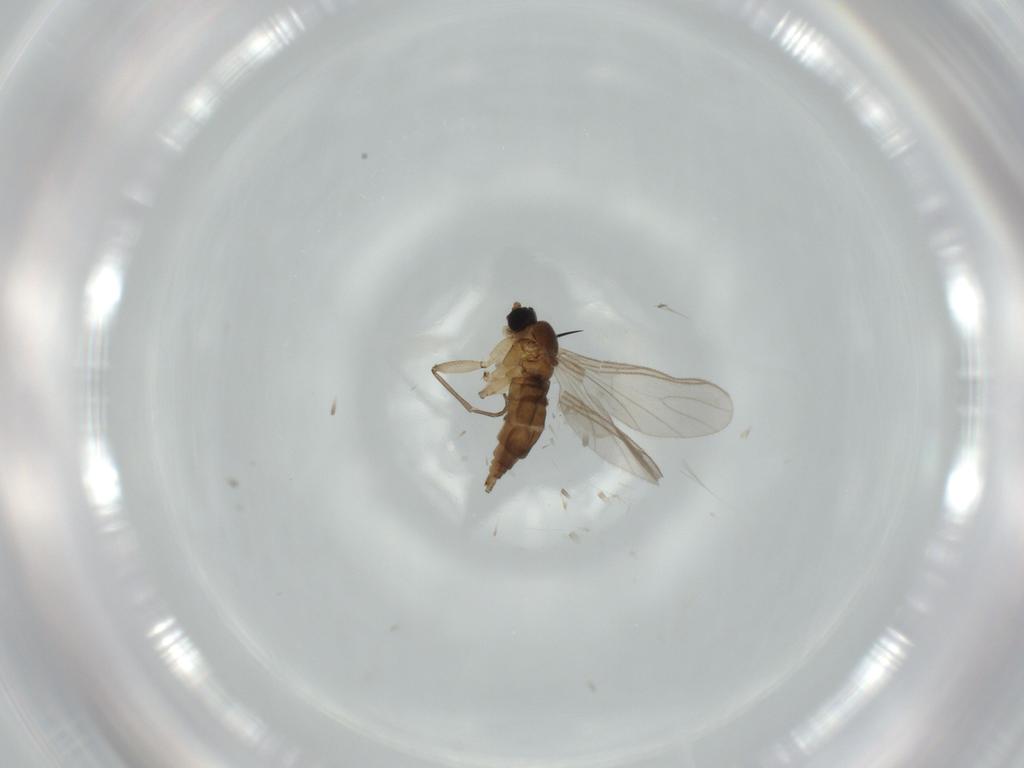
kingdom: Animalia
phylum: Arthropoda
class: Insecta
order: Diptera
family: Sciaridae
